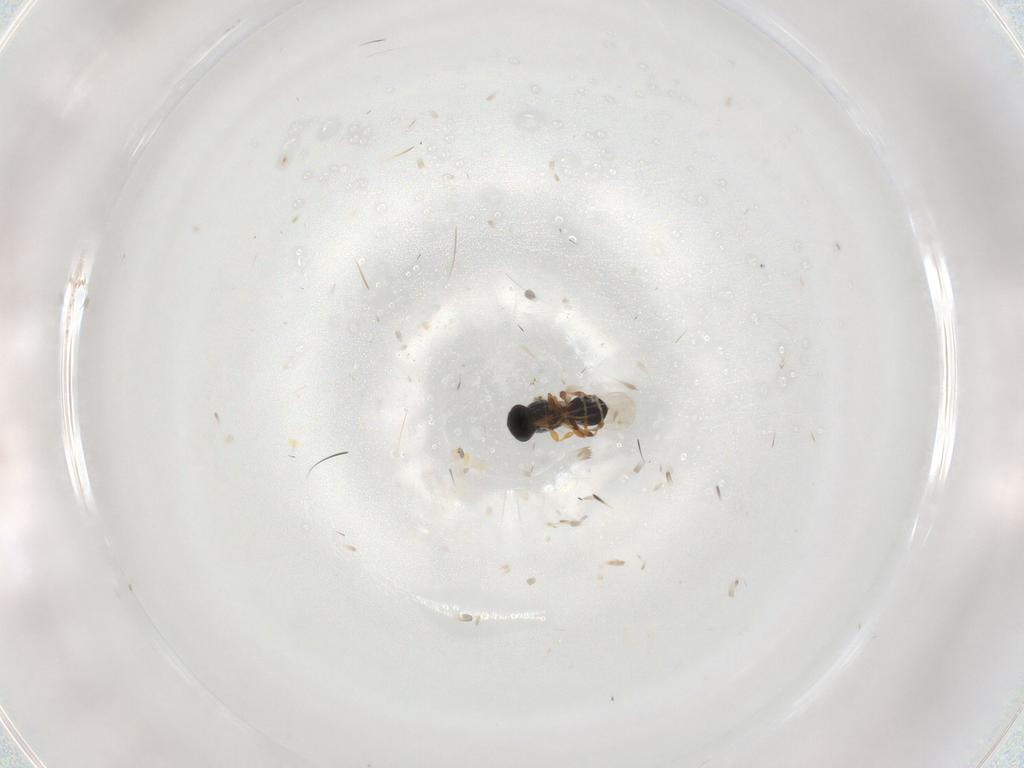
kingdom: Animalia
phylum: Arthropoda
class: Insecta
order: Hymenoptera
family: Platygastridae
